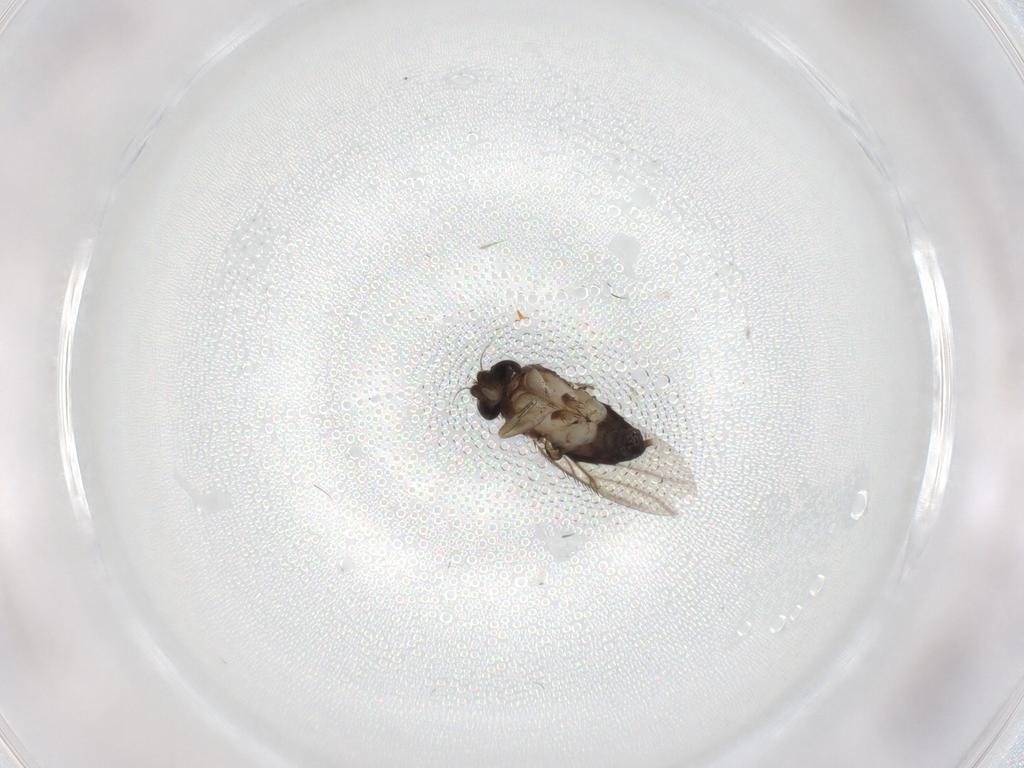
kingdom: Animalia
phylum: Arthropoda
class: Insecta
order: Diptera
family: Phoridae
